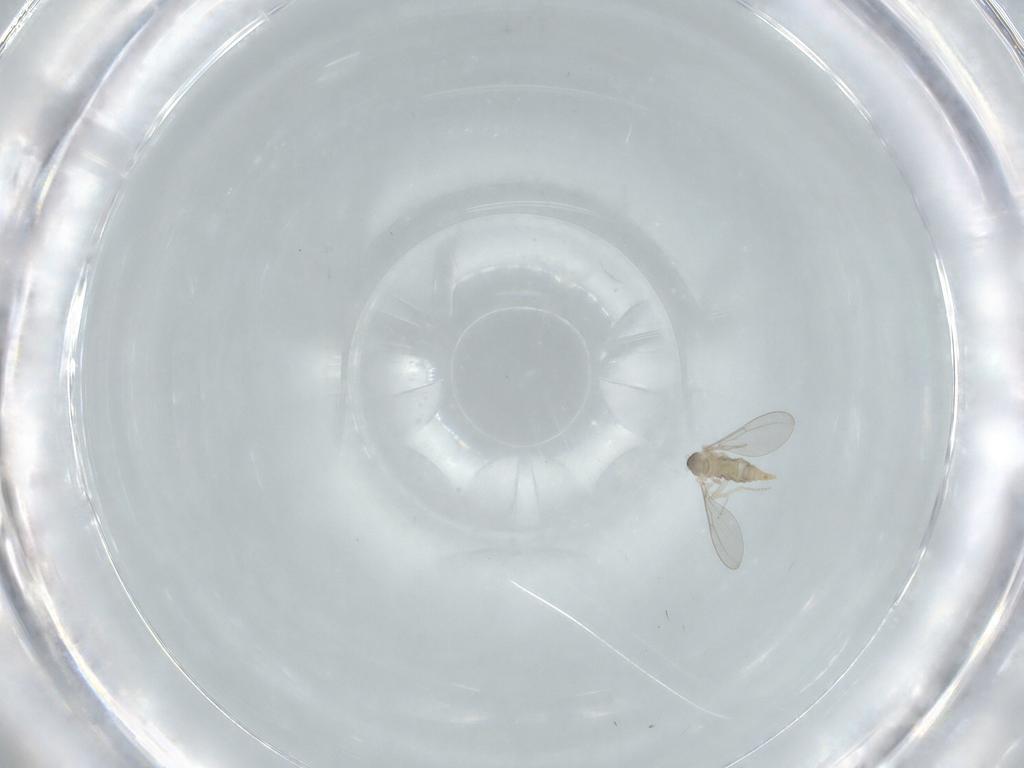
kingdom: Animalia
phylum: Arthropoda
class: Insecta
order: Diptera
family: Cecidomyiidae
